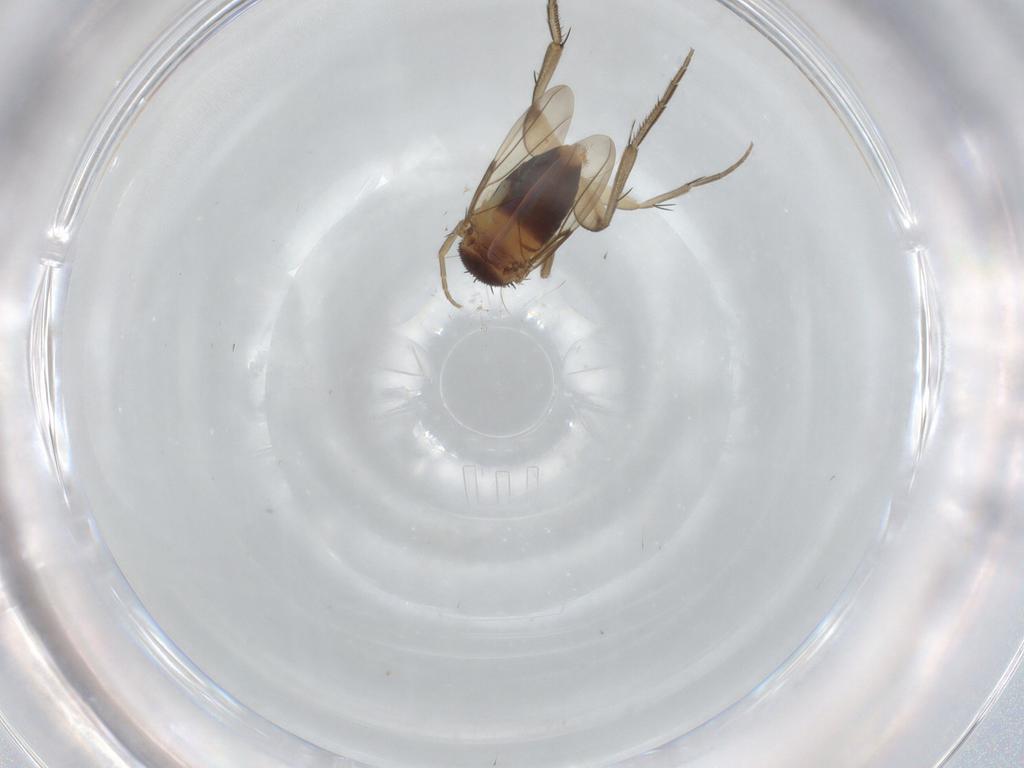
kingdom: Animalia
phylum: Arthropoda
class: Insecta
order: Diptera
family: Phoridae
